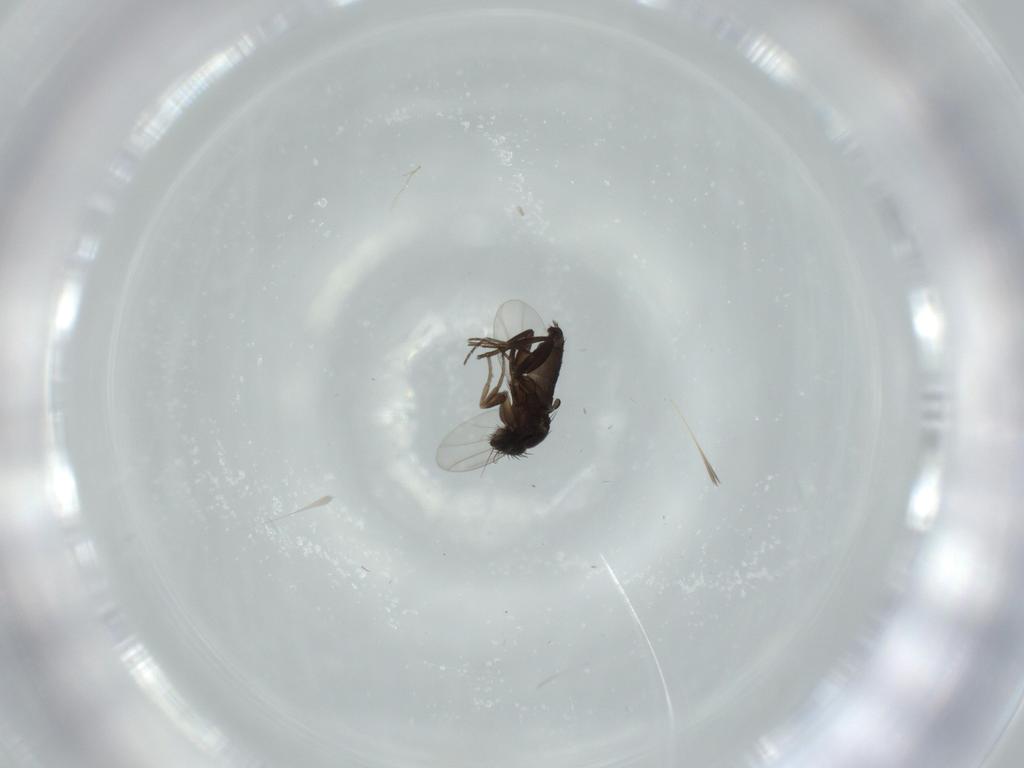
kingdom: Animalia
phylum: Arthropoda
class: Insecta
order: Diptera
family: Phoridae
